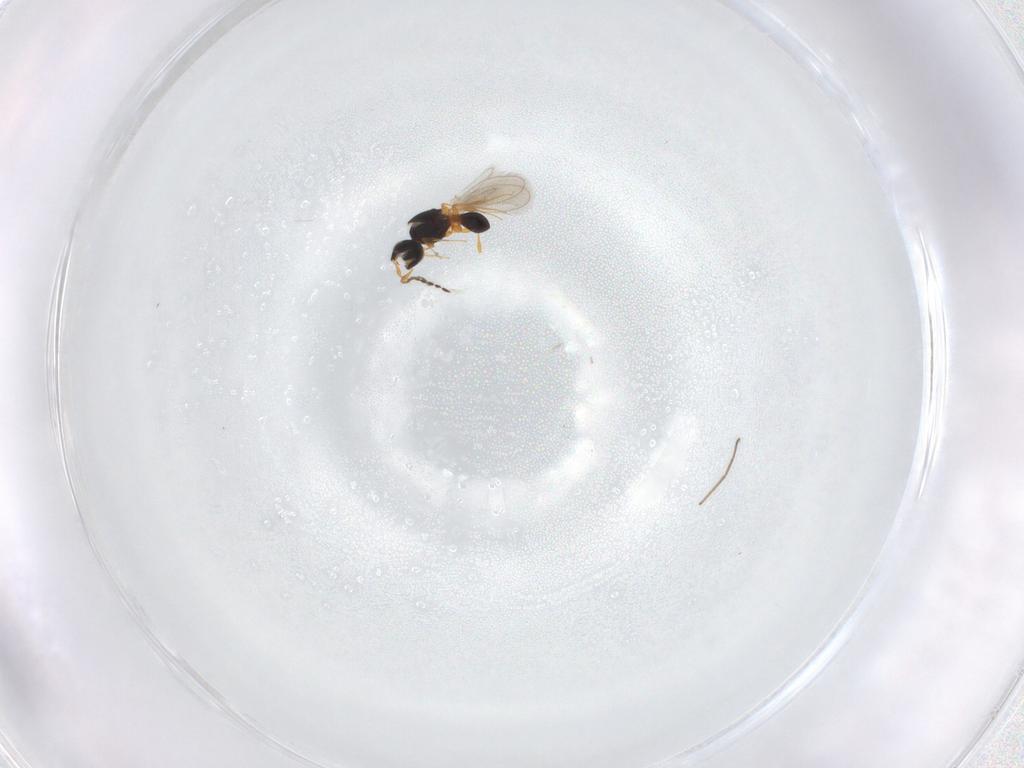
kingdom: Animalia
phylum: Arthropoda
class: Insecta
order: Hymenoptera
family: Platygastridae
